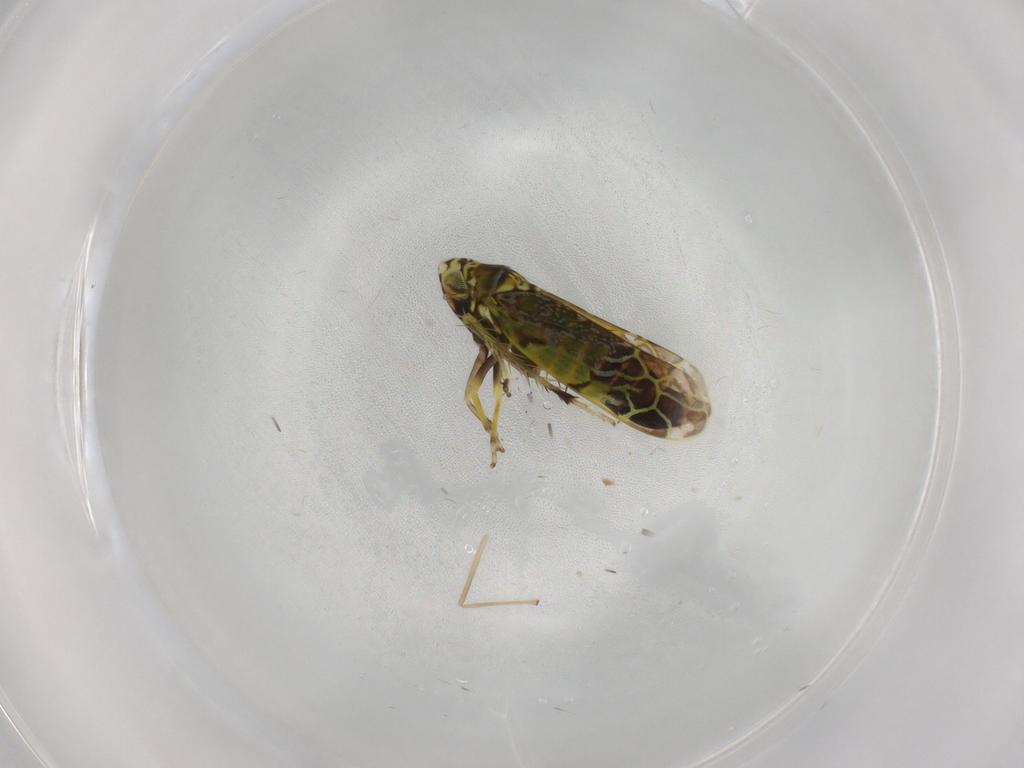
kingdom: Animalia
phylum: Arthropoda
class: Insecta
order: Hemiptera
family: Cicadellidae
